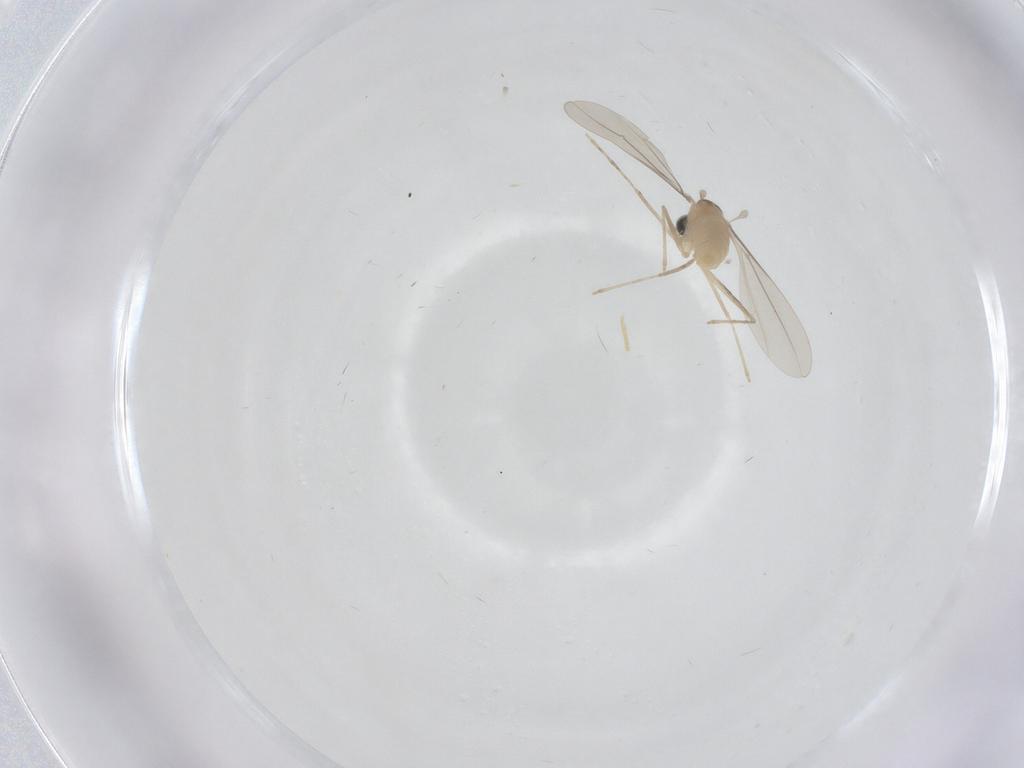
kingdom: Animalia
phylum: Arthropoda
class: Insecta
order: Diptera
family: Cecidomyiidae
